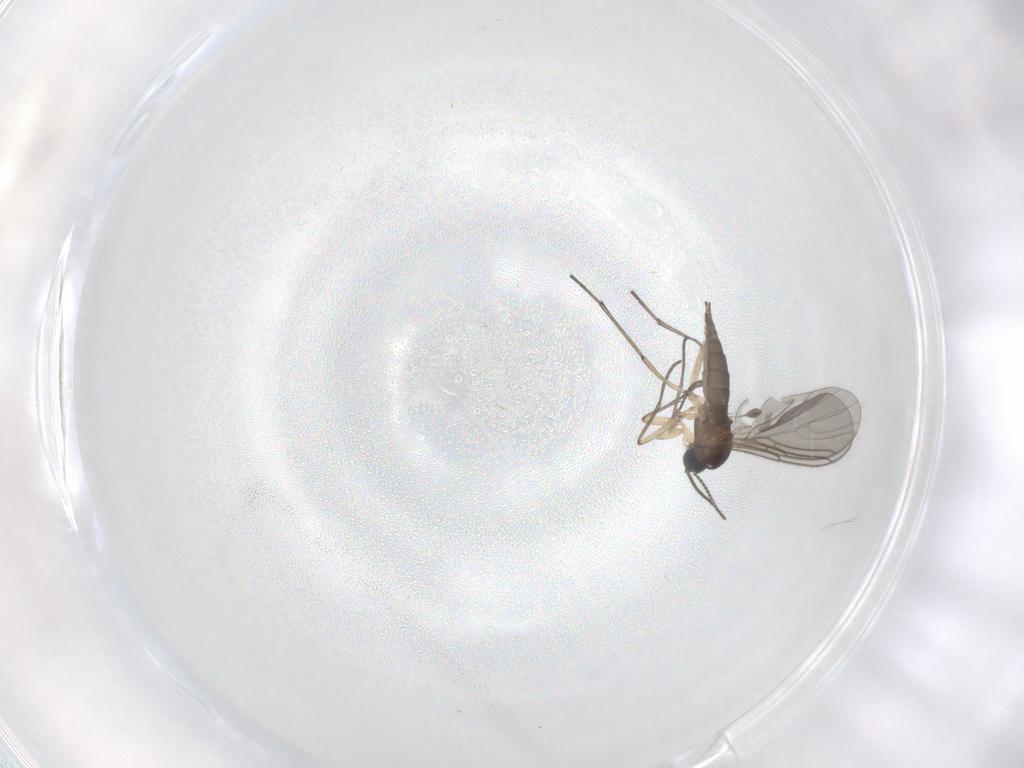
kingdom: Animalia
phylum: Arthropoda
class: Insecta
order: Diptera
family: Sciaridae
